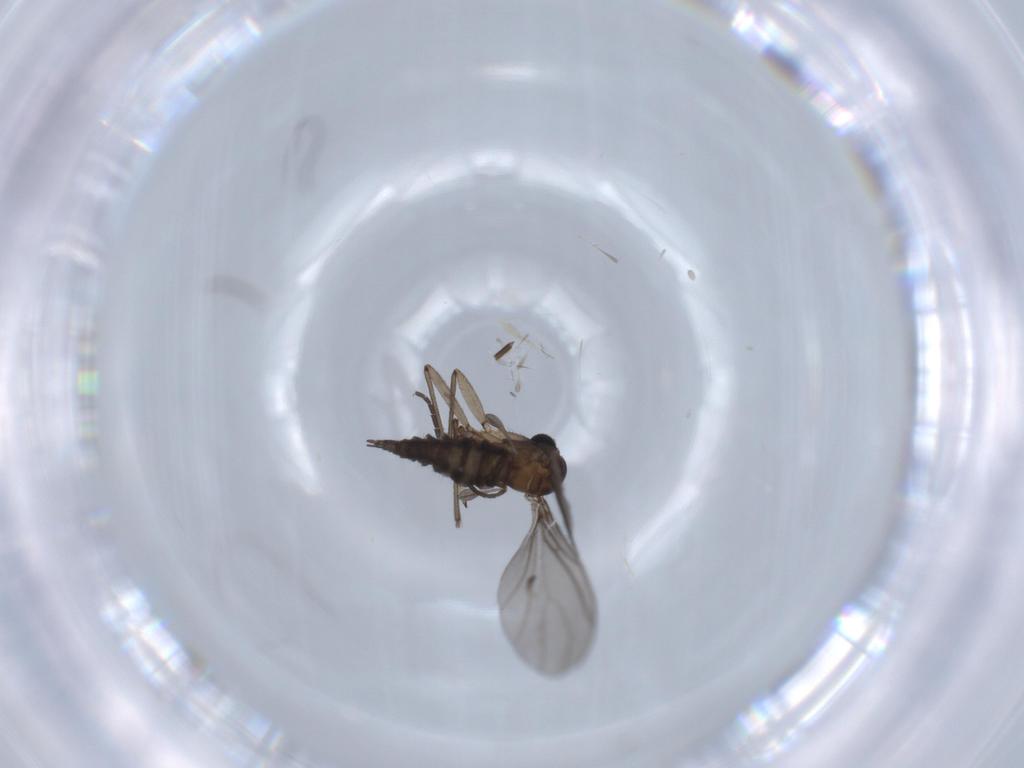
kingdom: Animalia
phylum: Arthropoda
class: Insecta
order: Diptera
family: Sciaridae
